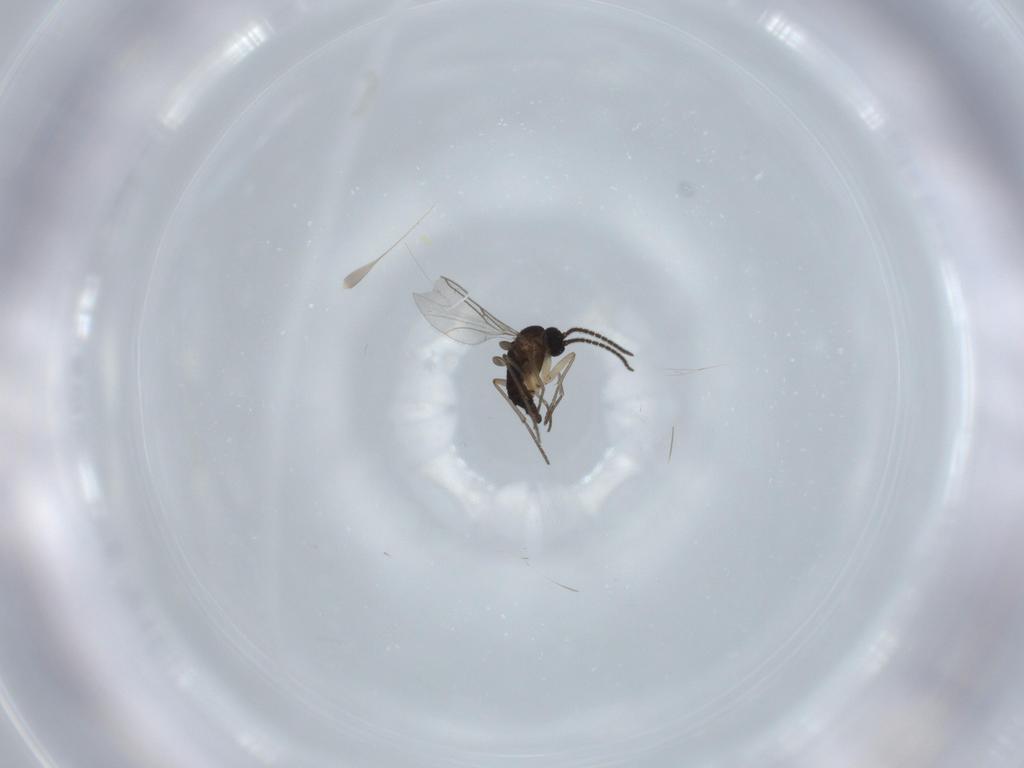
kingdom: Animalia
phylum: Arthropoda
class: Insecta
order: Diptera
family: Sciaridae
